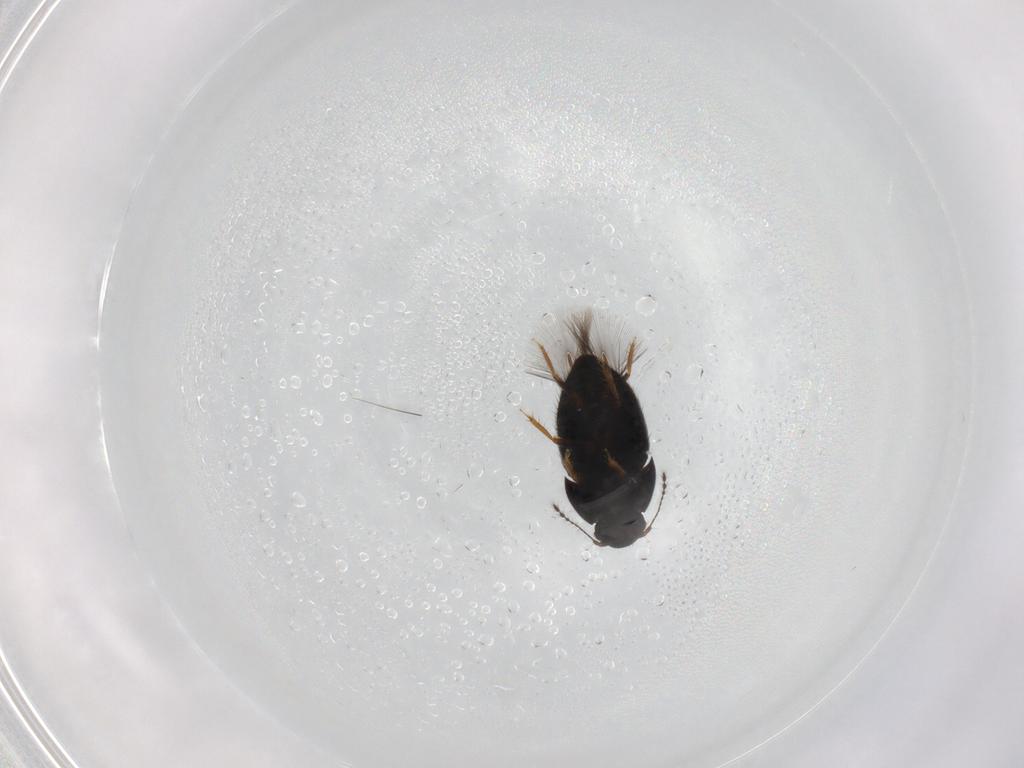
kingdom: Animalia
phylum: Arthropoda
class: Insecta
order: Coleoptera
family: Ptiliidae
